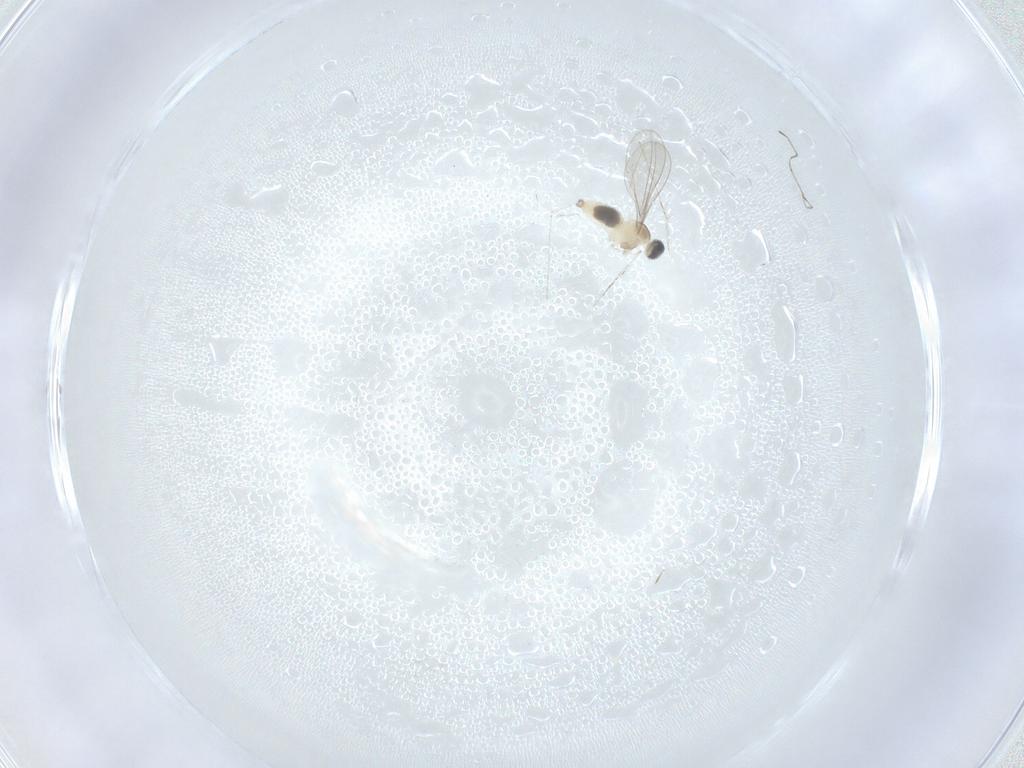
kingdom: Animalia
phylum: Arthropoda
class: Insecta
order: Diptera
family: Cecidomyiidae
